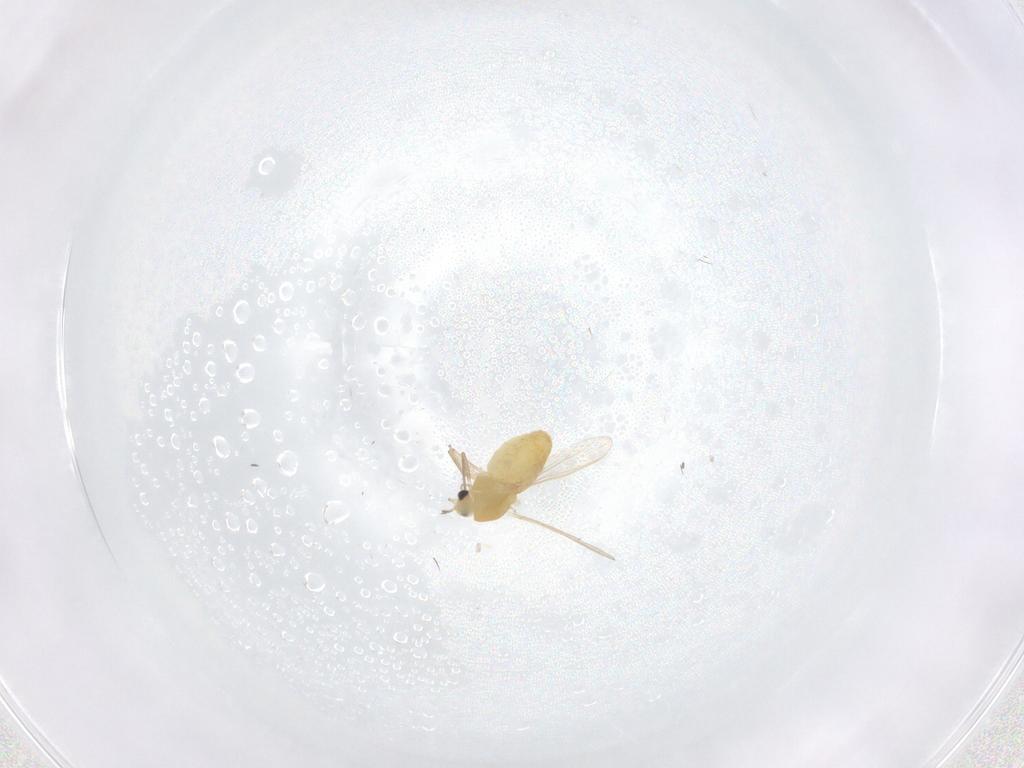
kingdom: Animalia
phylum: Arthropoda
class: Insecta
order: Diptera
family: Chironomidae
